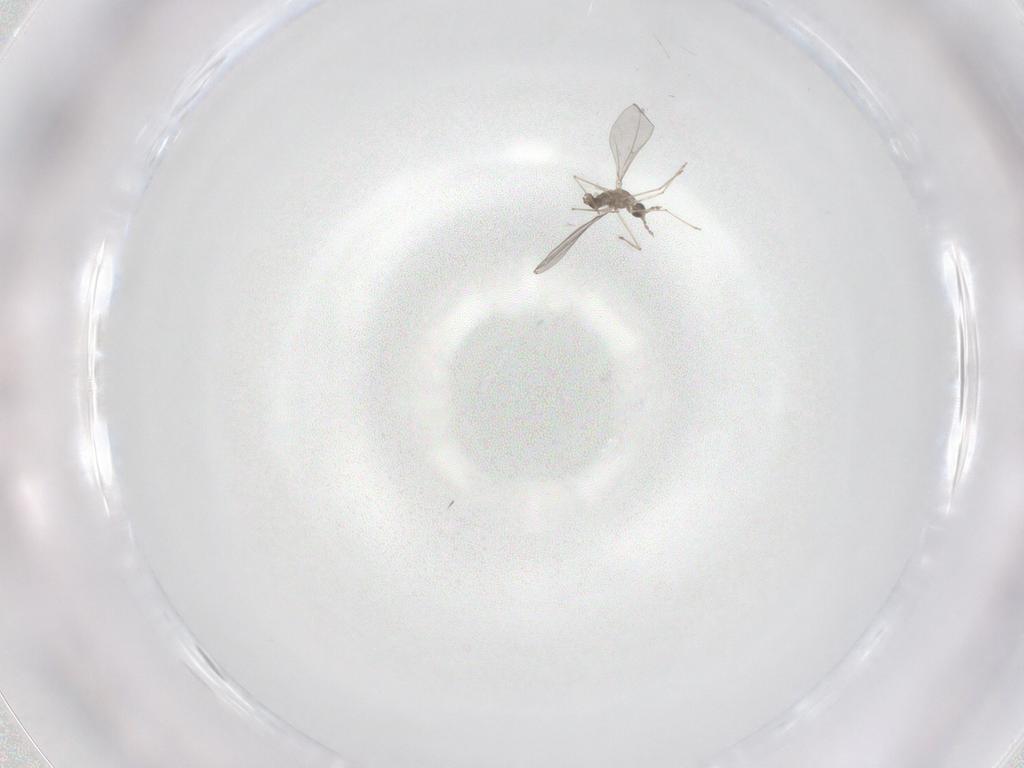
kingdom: Animalia
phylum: Arthropoda
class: Insecta
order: Diptera
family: Cecidomyiidae
